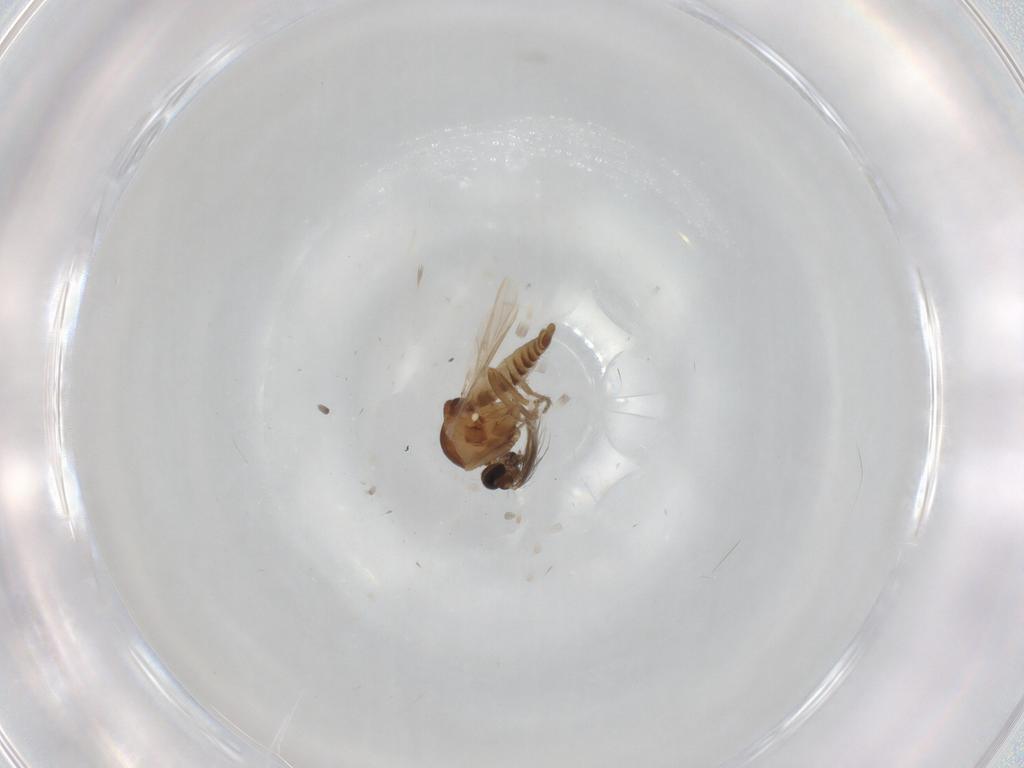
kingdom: Animalia
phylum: Arthropoda
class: Insecta
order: Diptera
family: Ceratopogonidae
